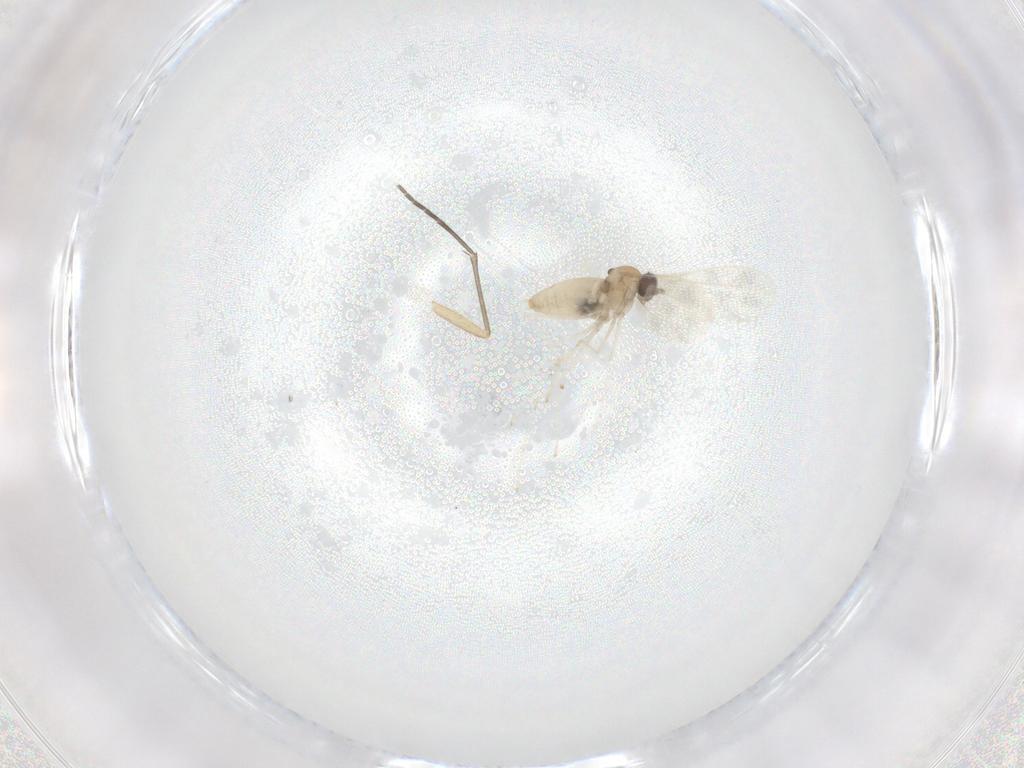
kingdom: Animalia
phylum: Arthropoda
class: Insecta
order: Diptera
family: Cecidomyiidae
